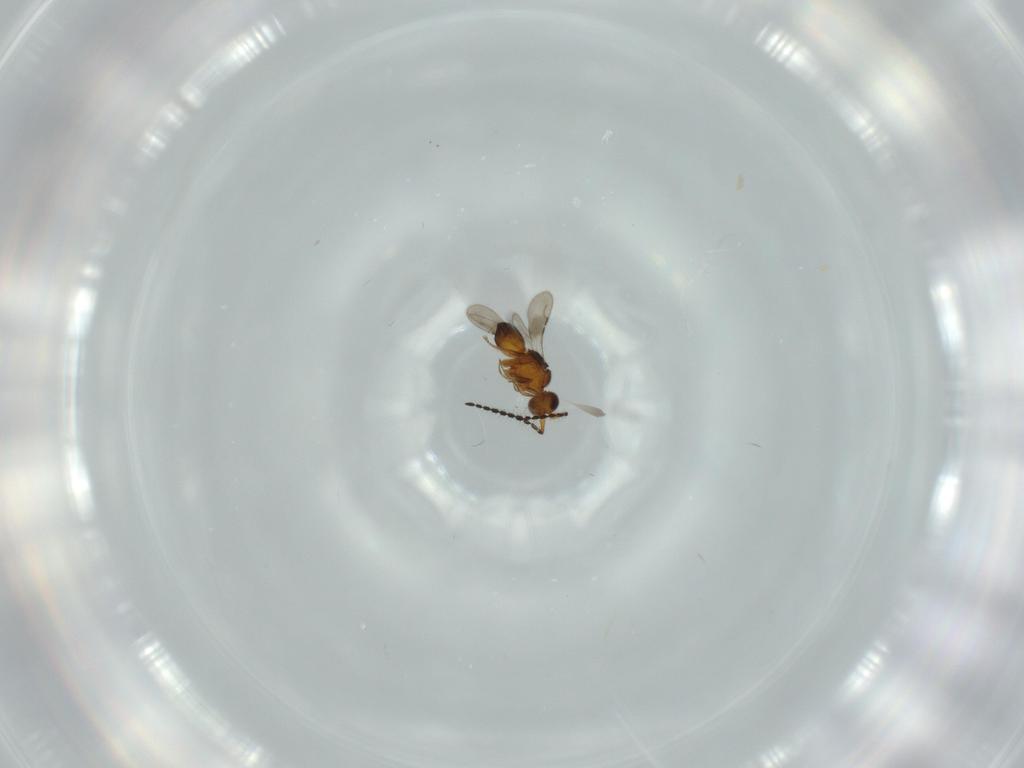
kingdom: Animalia
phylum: Arthropoda
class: Insecta
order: Hymenoptera
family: Ceraphronidae
